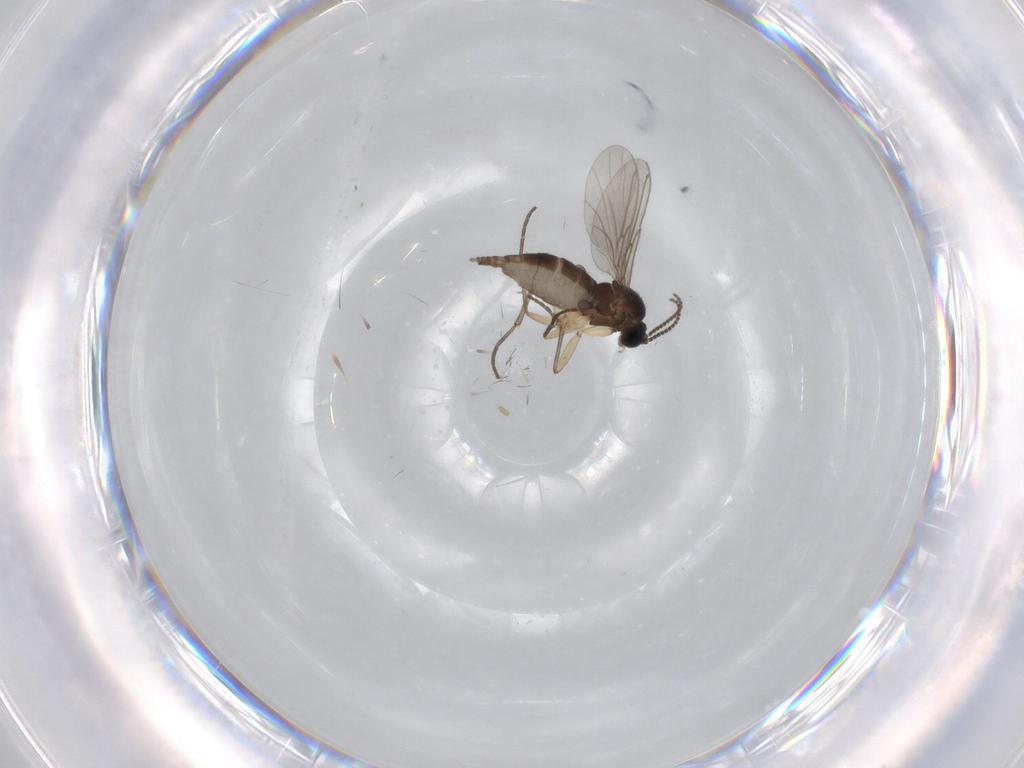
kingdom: Animalia
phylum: Arthropoda
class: Insecta
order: Diptera
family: Sciaridae
